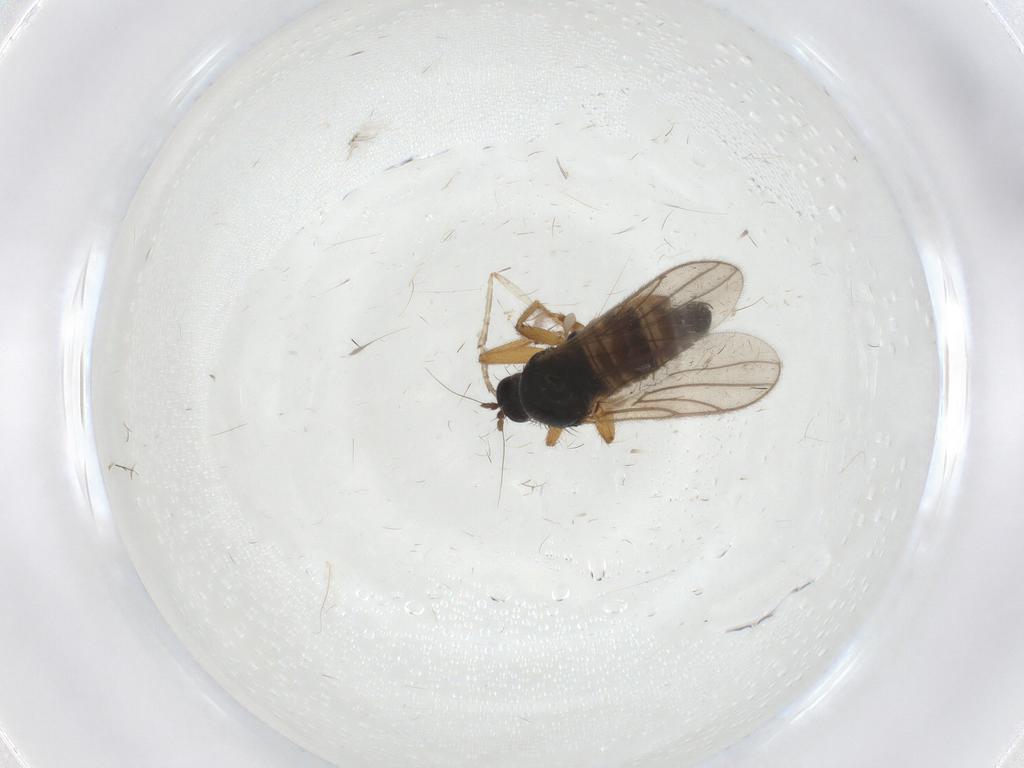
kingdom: Animalia
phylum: Arthropoda
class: Insecta
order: Diptera
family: Hybotidae
